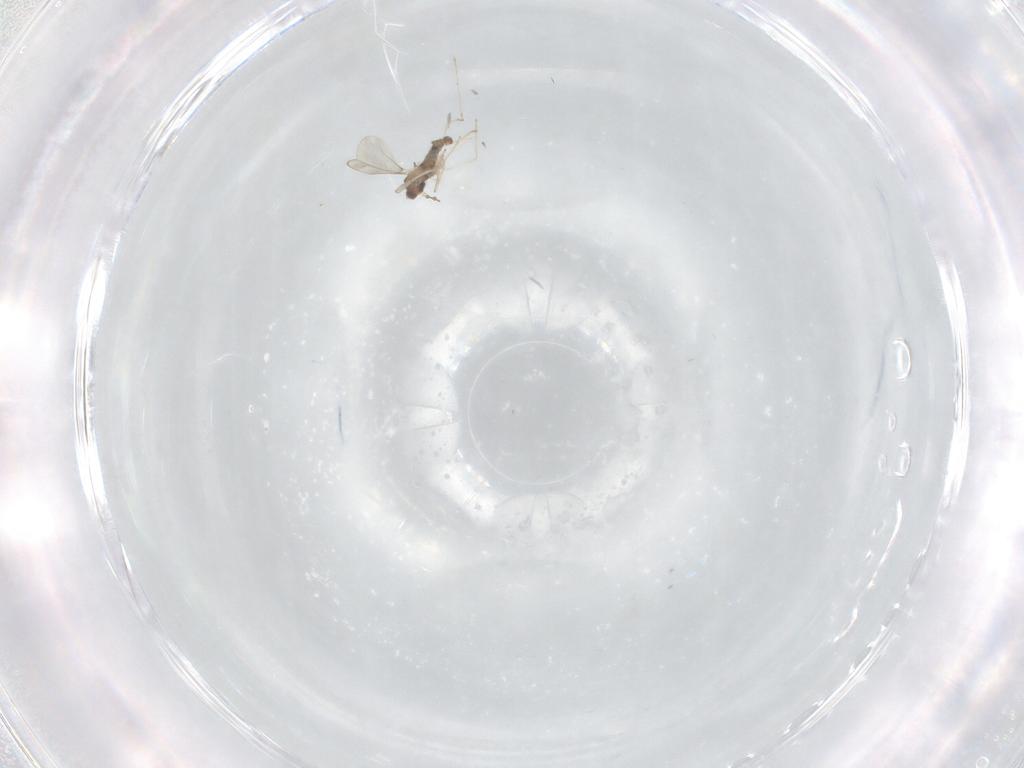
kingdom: Animalia
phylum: Arthropoda
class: Insecta
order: Diptera
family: Cecidomyiidae
